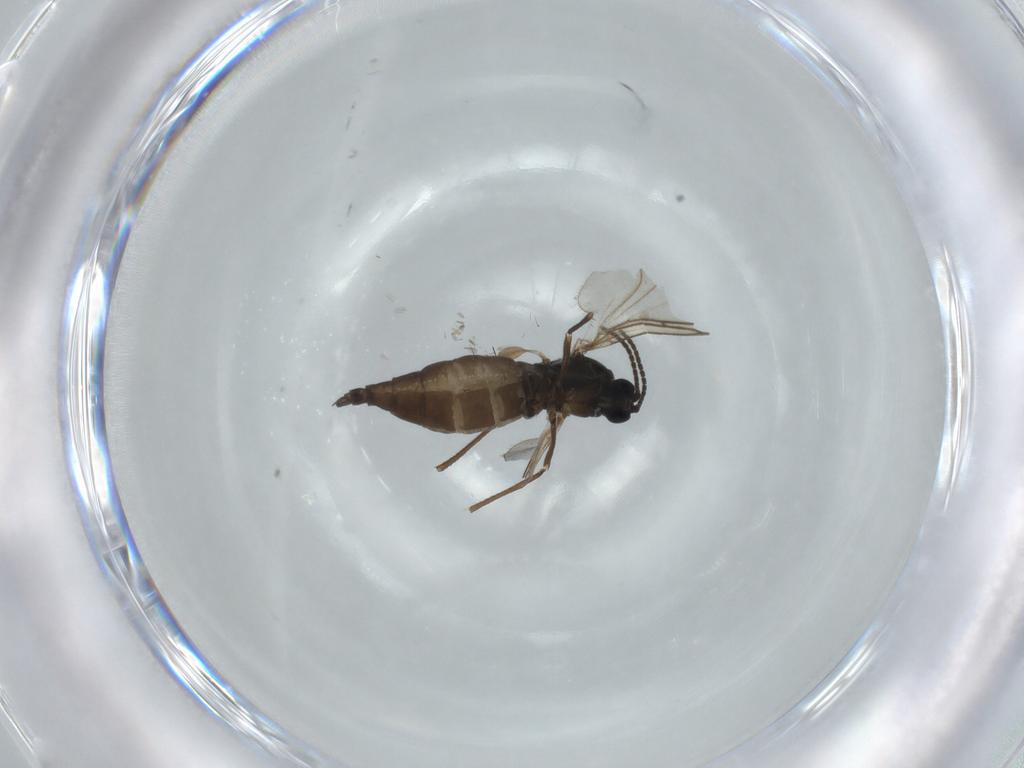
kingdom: Animalia
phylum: Arthropoda
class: Insecta
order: Diptera
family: Sciaridae
